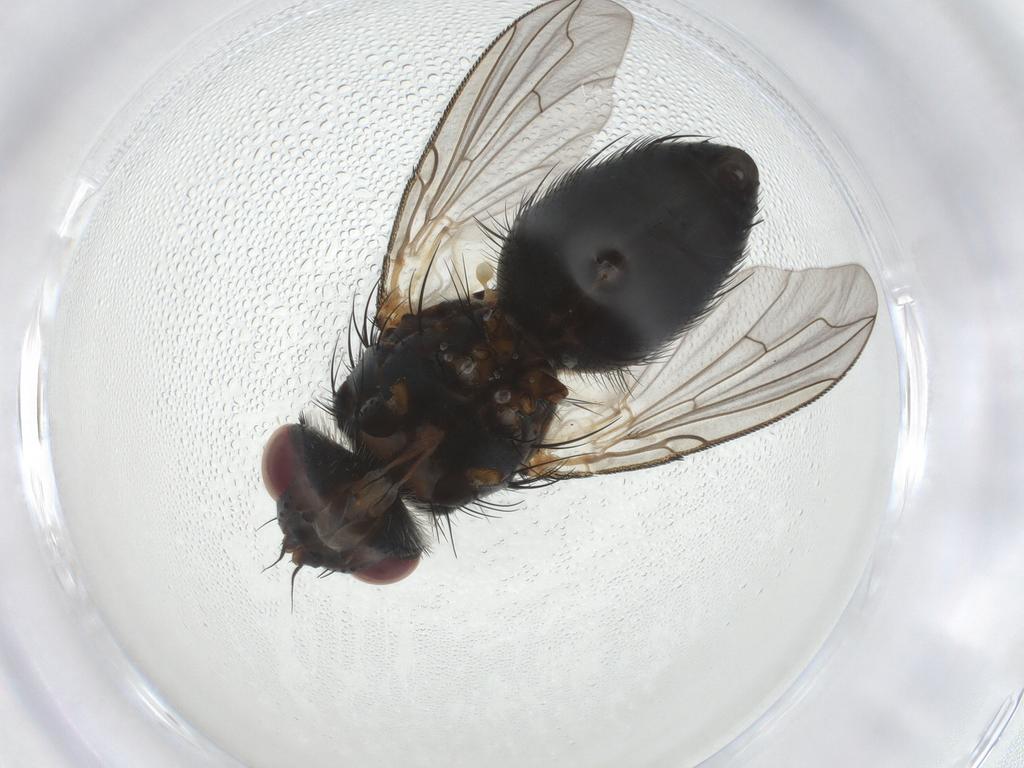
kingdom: Animalia
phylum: Arthropoda
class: Insecta
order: Diptera
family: Tachinidae
